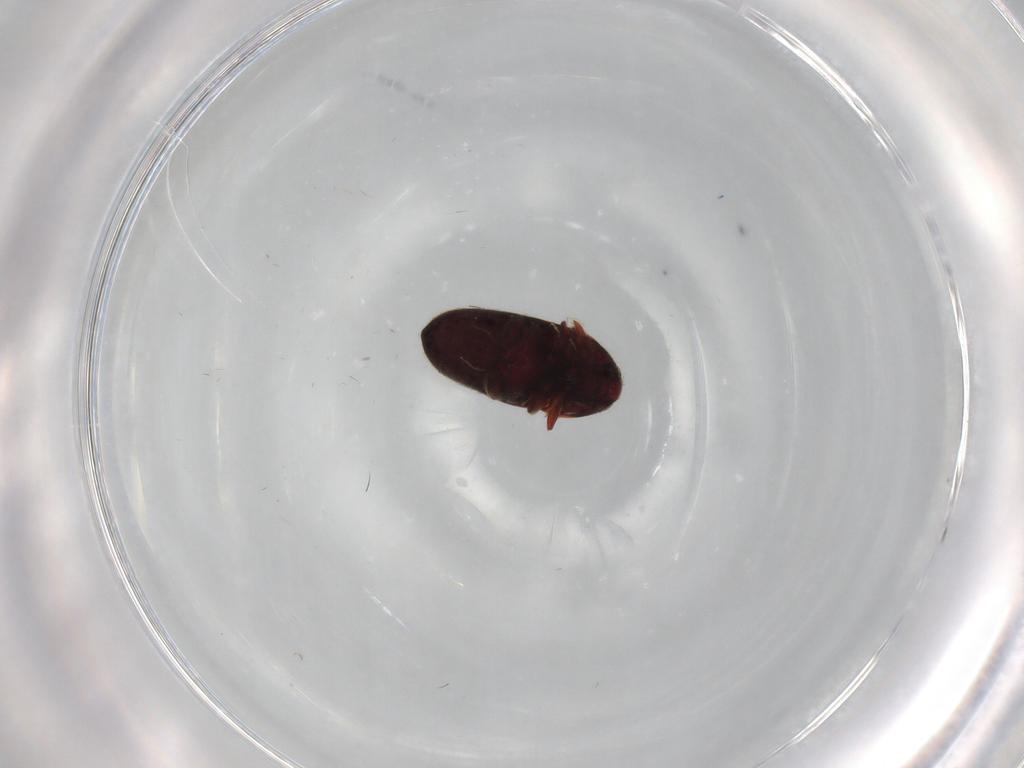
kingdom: Animalia
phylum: Arthropoda
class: Insecta
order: Coleoptera
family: Throscidae
